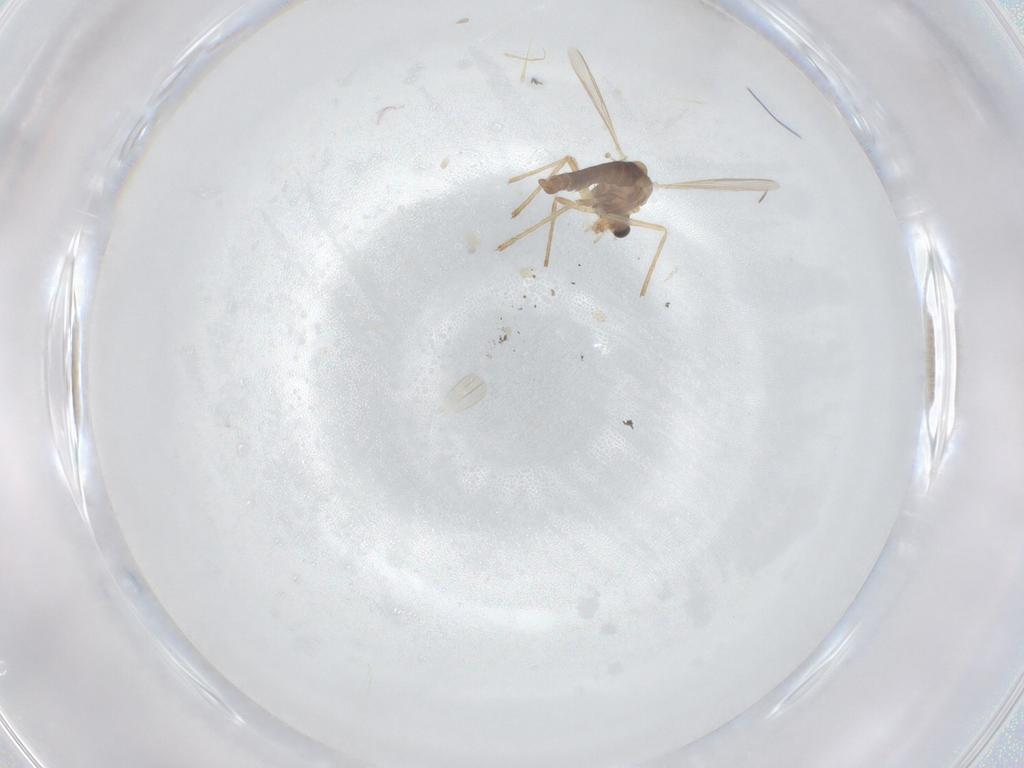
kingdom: Animalia
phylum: Arthropoda
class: Insecta
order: Diptera
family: Chironomidae
